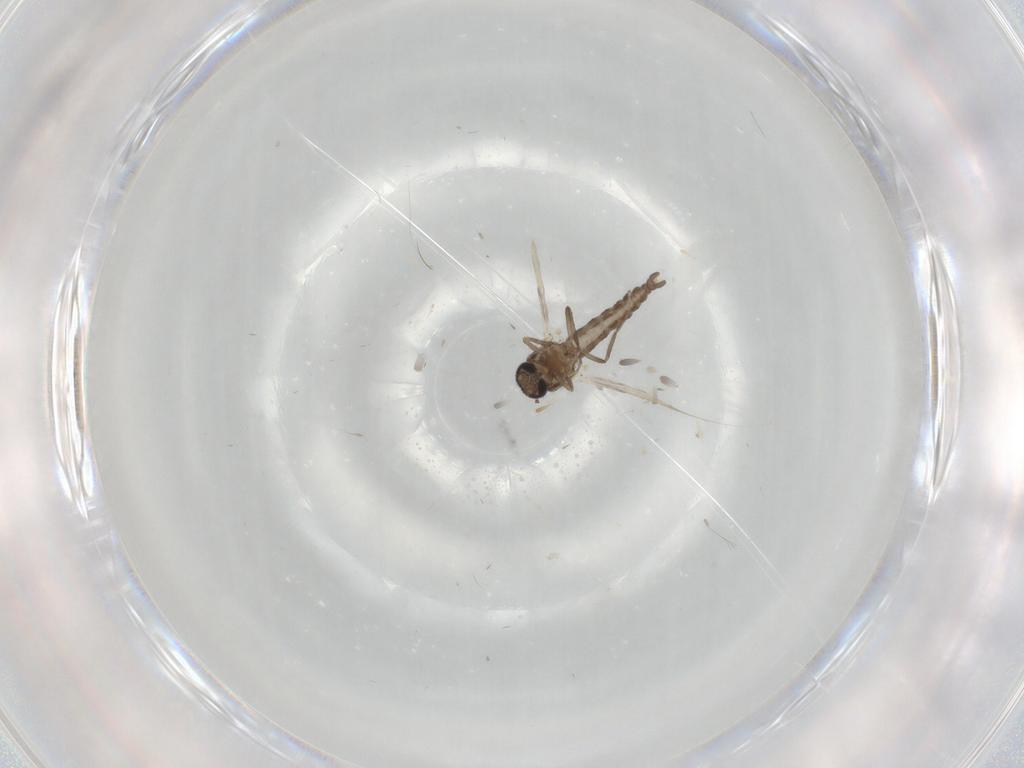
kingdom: Animalia
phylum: Arthropoda
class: Insecta
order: Diptera
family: Ceratopogonidae
